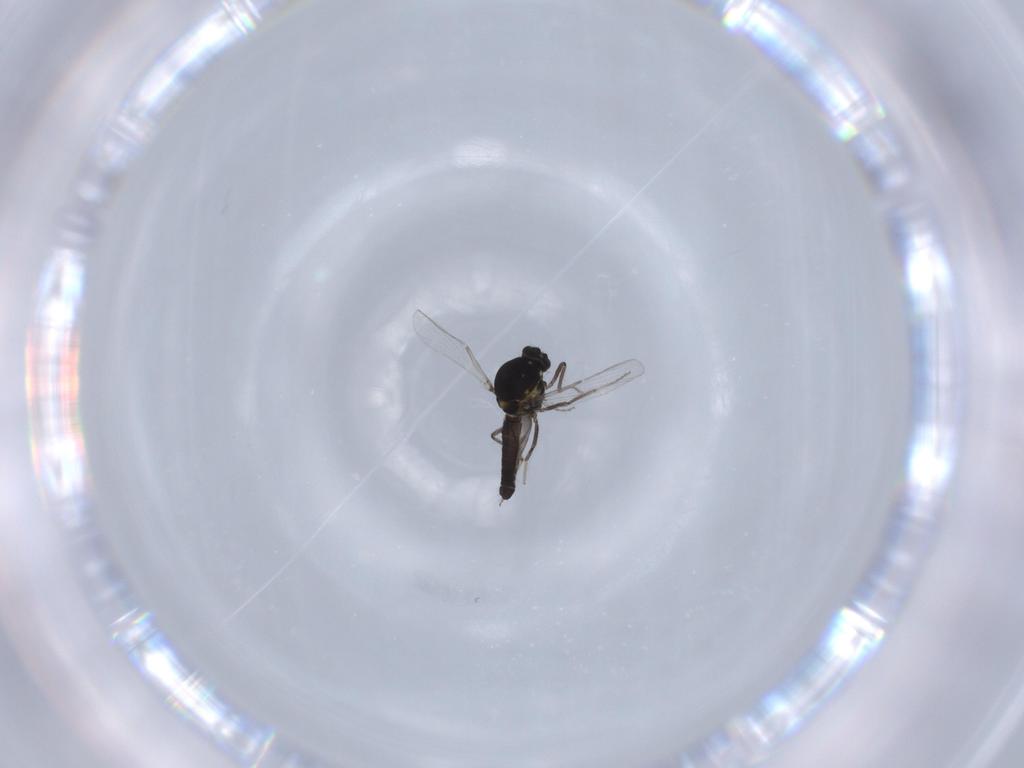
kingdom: Animalia
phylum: Arthropoda
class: Insecta
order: Diptera
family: Ceratopogonidae
